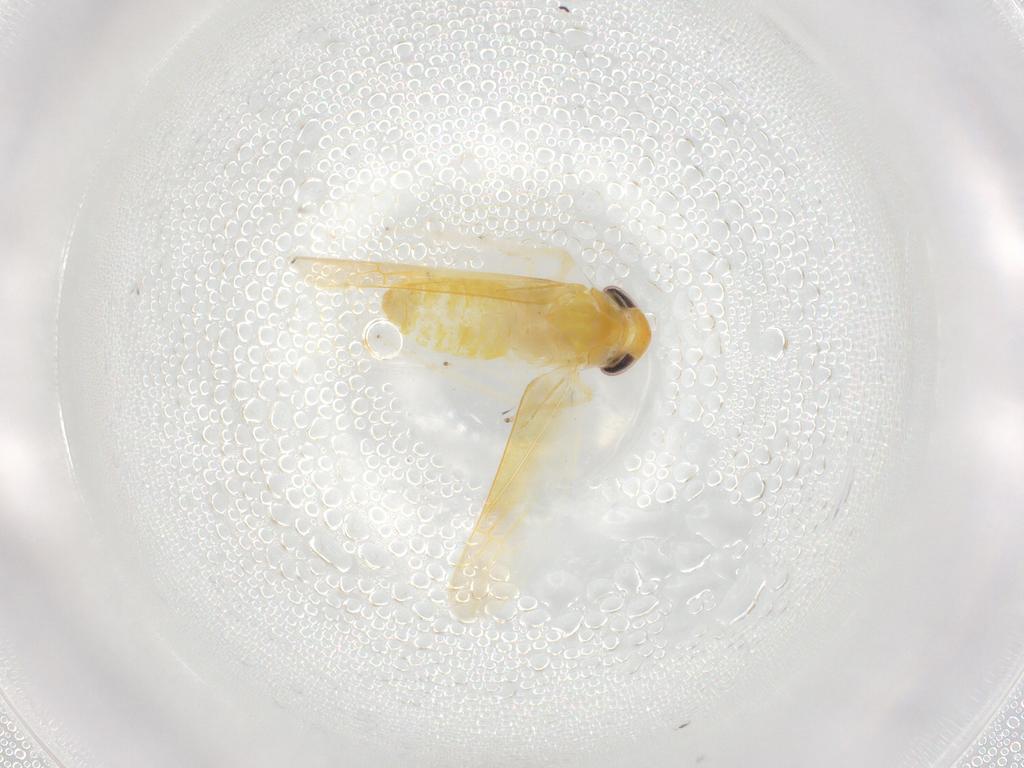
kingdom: Animalia
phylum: Arthropoda
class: Insecta
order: Hemiptera
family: Cicadellidae
